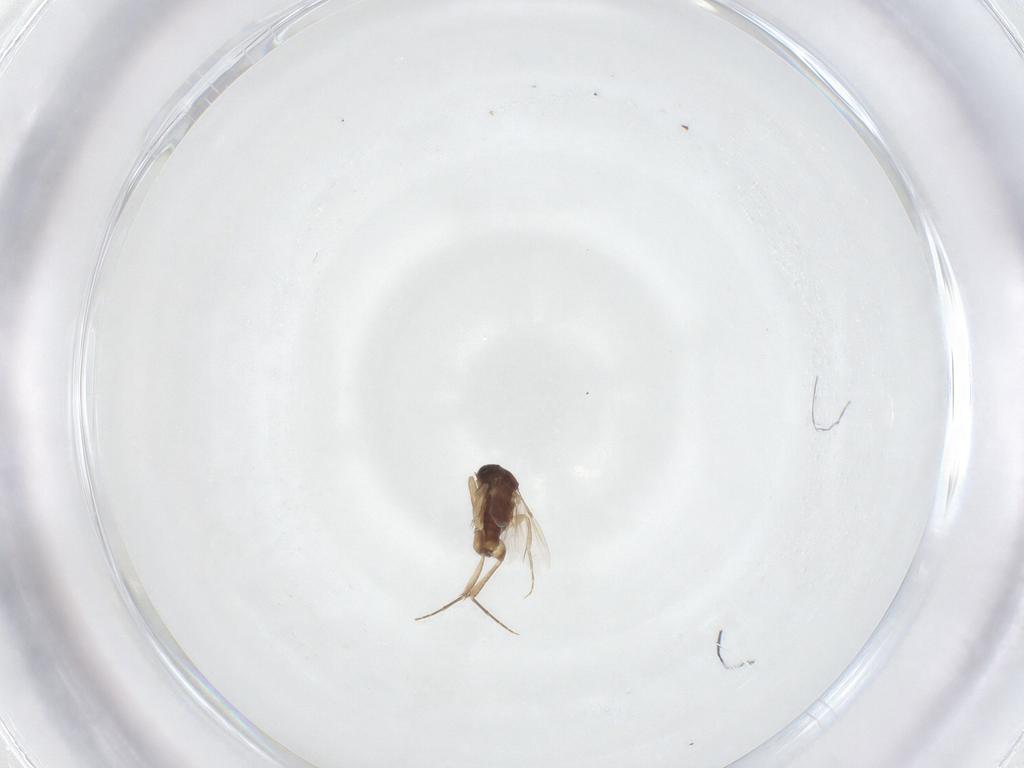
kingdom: Animalia
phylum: Arthropoda
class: Insecta
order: Diptera
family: Phoridae
